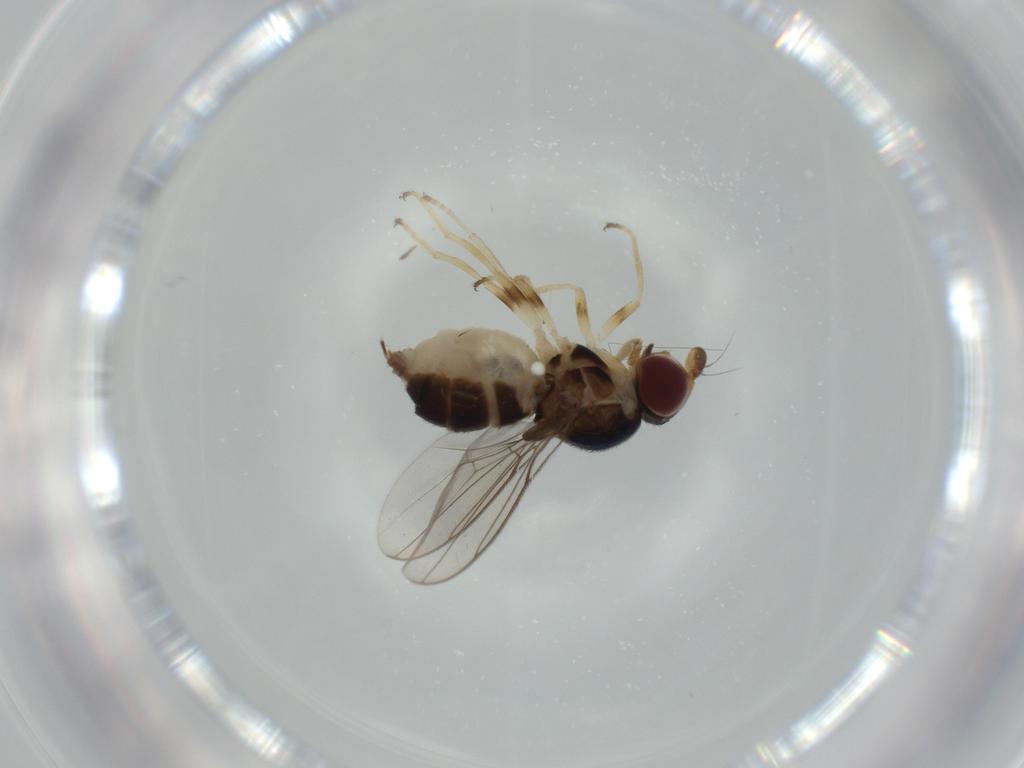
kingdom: Animalia
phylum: Arthropoda
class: Insecta
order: Diptera
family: Chloropidae
